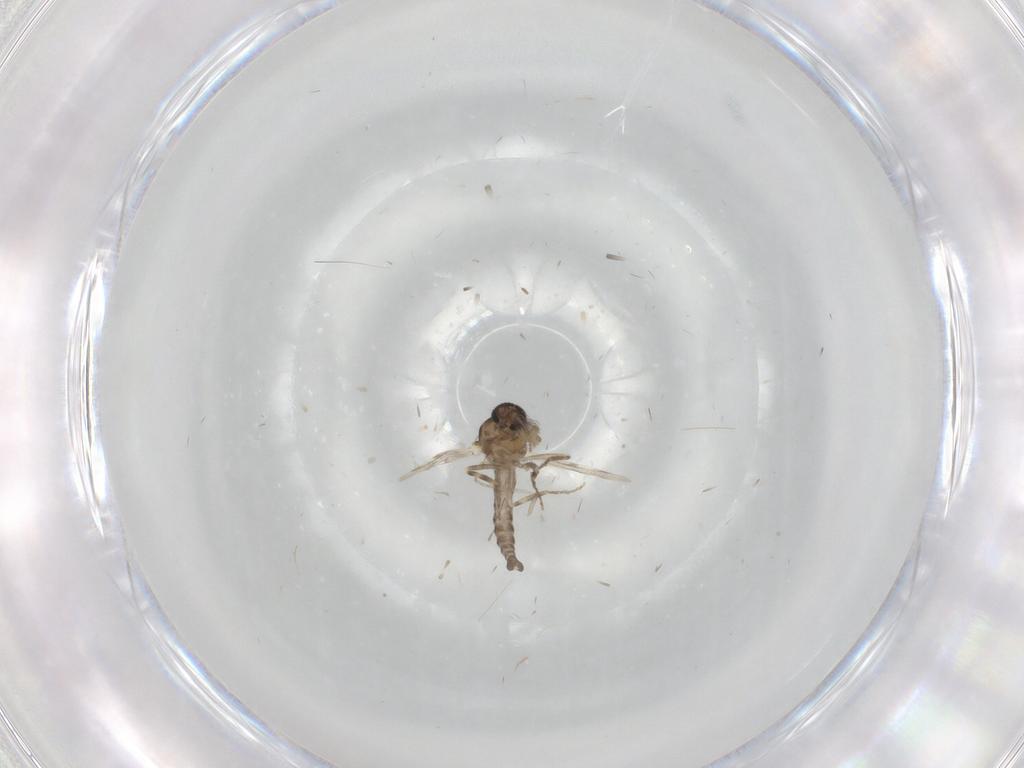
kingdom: Animalia
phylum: Arthropoda
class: Insecta
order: Diptera
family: Ceratopogonidae
